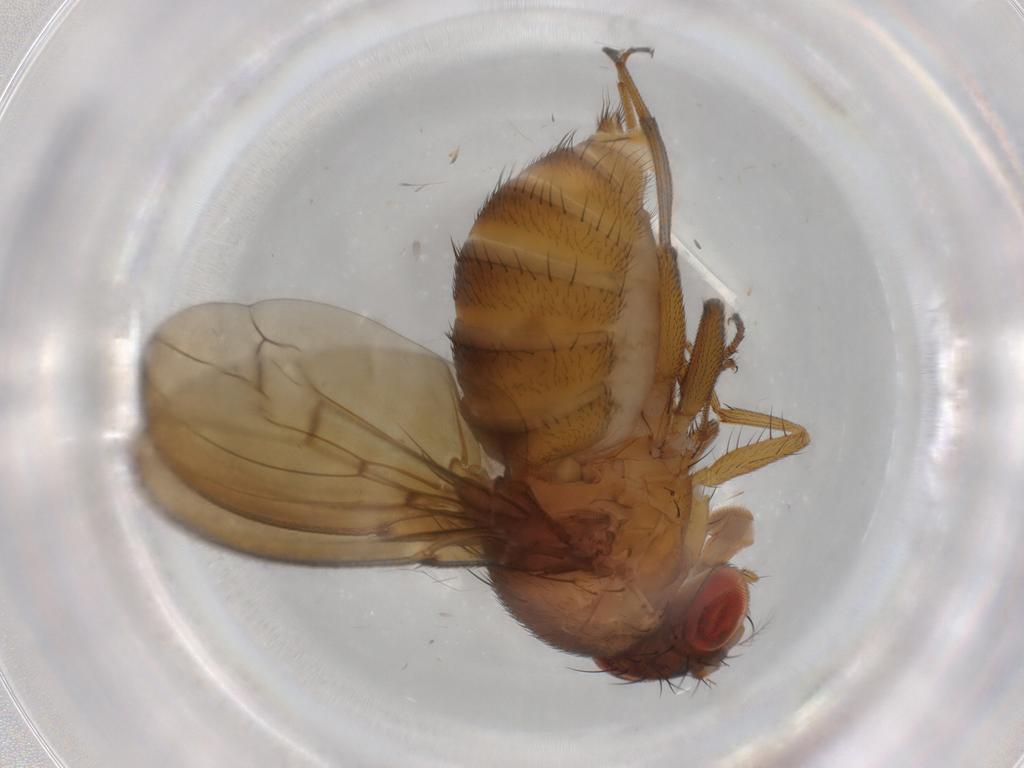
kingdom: Animalia
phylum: Arthropoda
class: Insecta
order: Diptera
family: Drosophilidae
